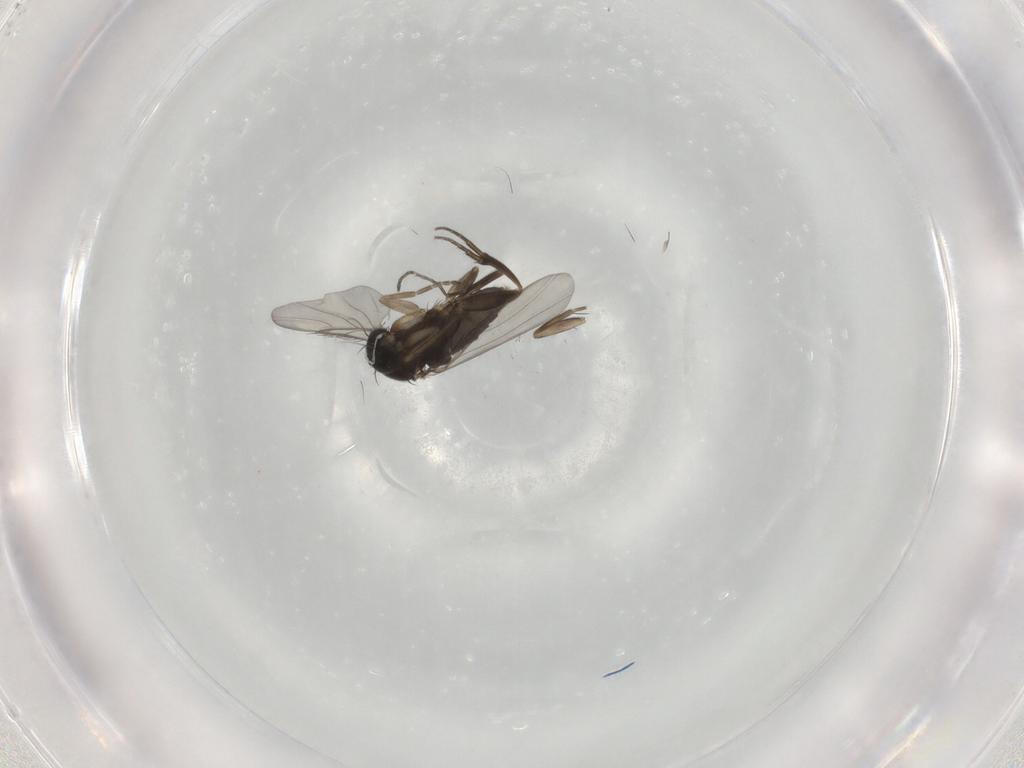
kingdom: Animalia
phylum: Arthropoda
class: Insecta
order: Diptera
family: Phoridae
